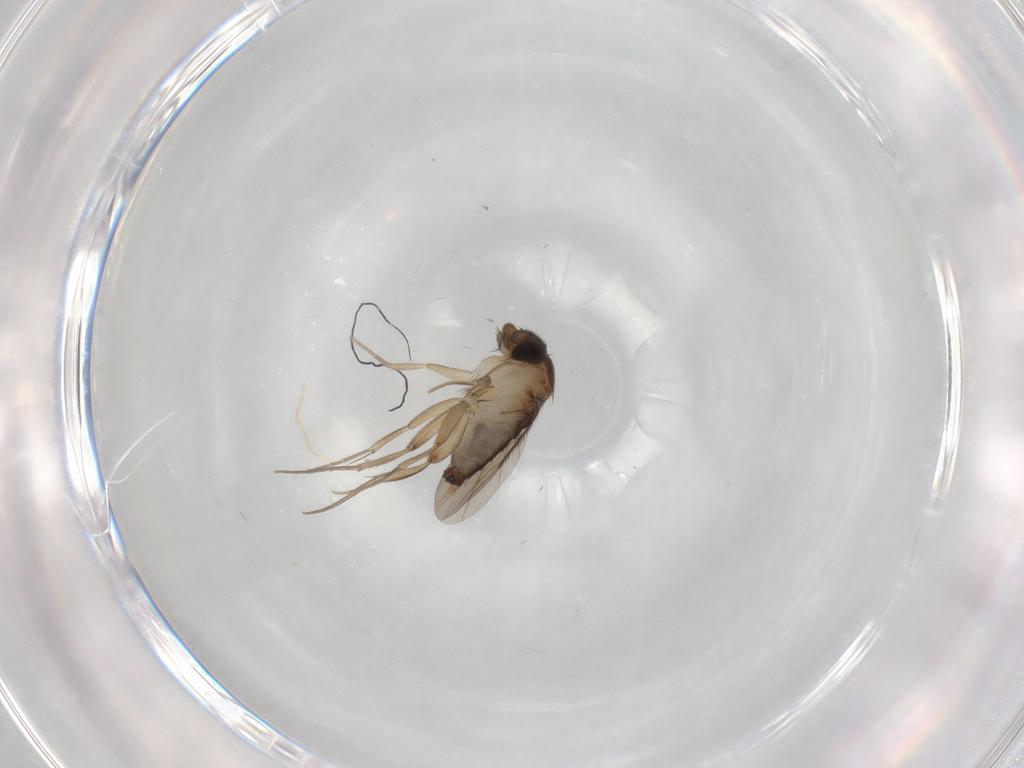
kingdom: Animalia
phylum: Arthropoda
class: Insecta
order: Diptera
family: Phoridae
